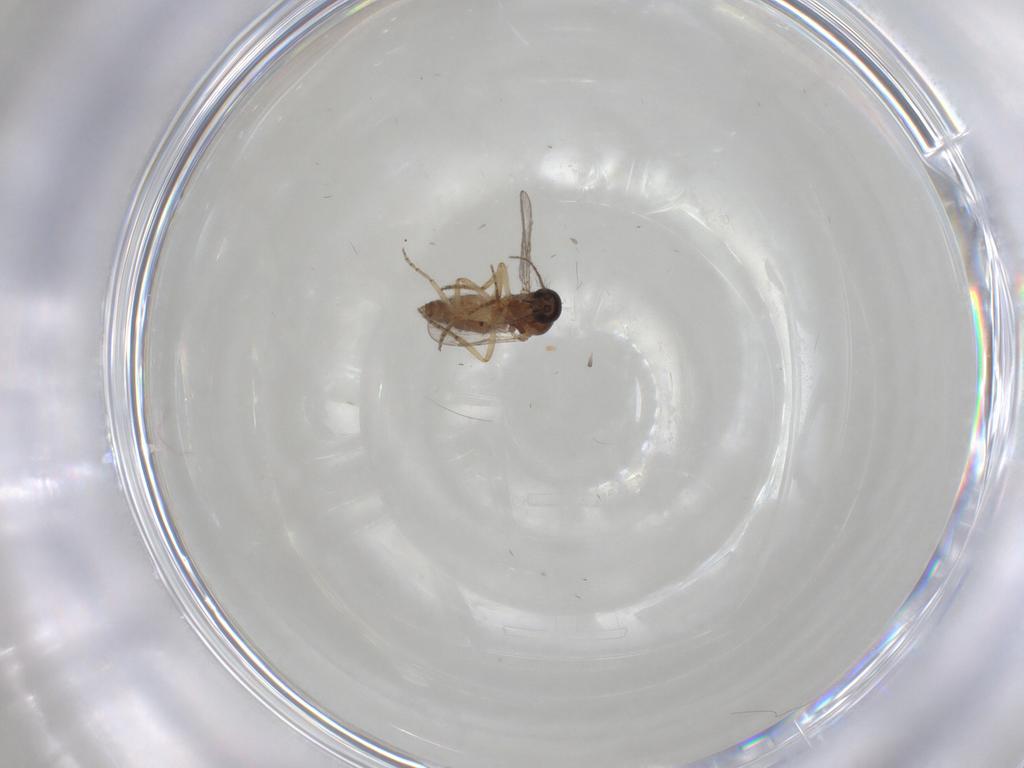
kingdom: Animalia
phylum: Arthropoda
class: Insecta
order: Diptera
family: Ceratopogonidae
